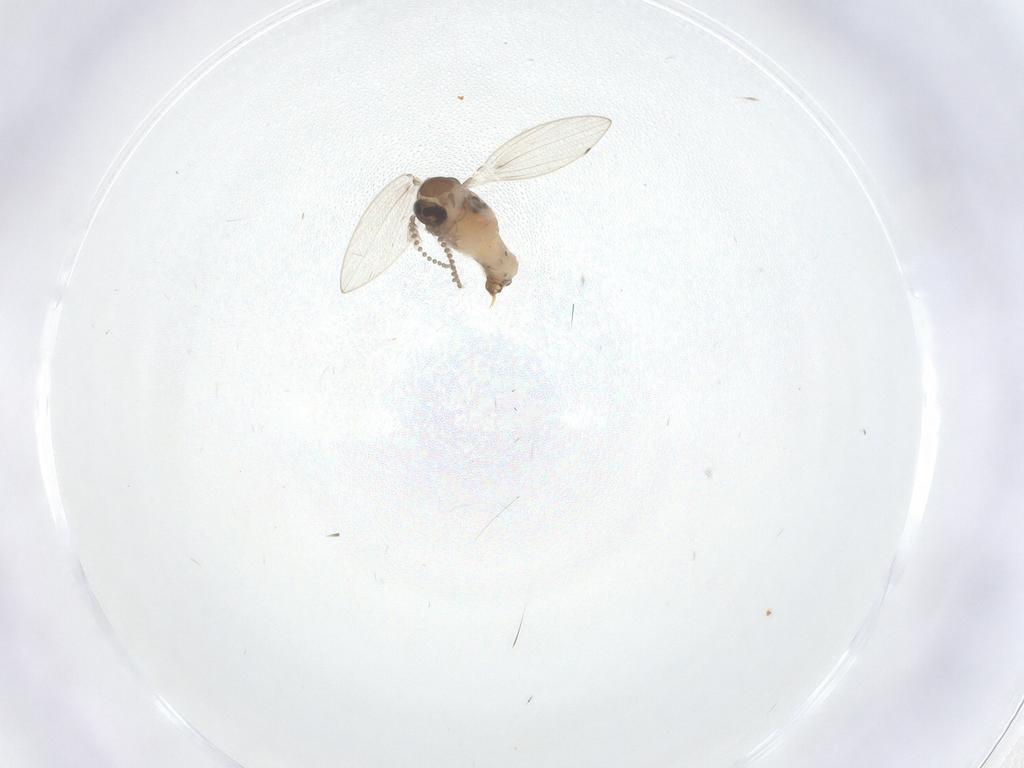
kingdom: Animalia
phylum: Arthropoda
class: Insecta
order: Diptera
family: Psychodidae
